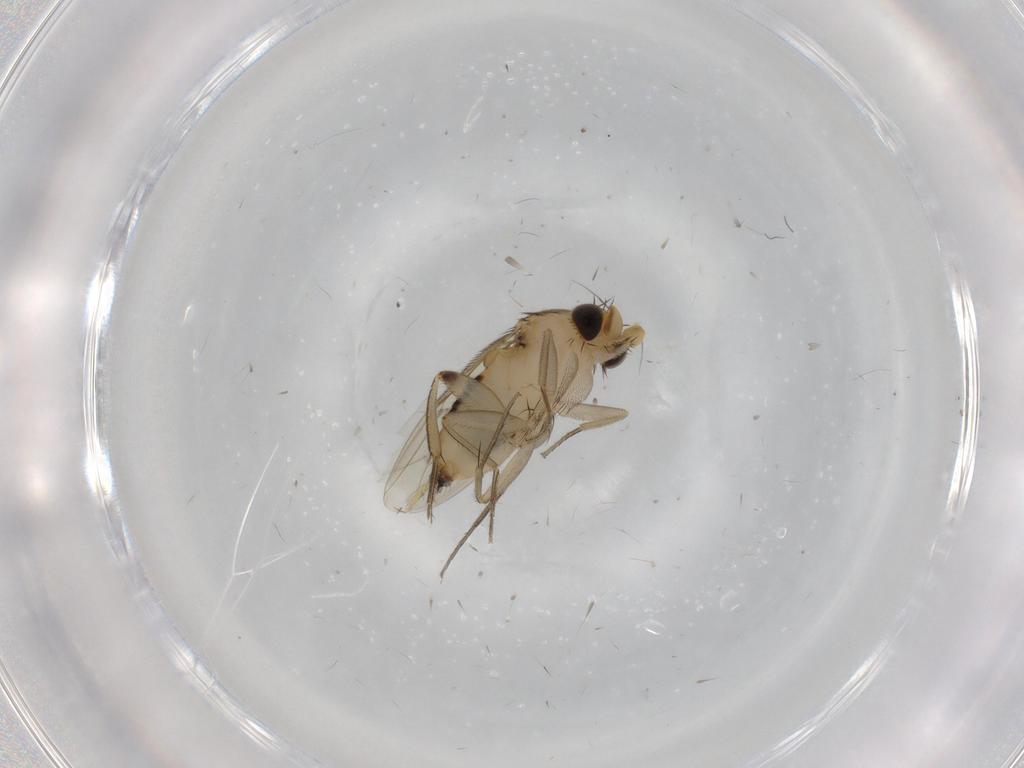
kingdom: Animalia
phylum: Arthropoda
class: Insecta
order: Diptera
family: Phoridae
